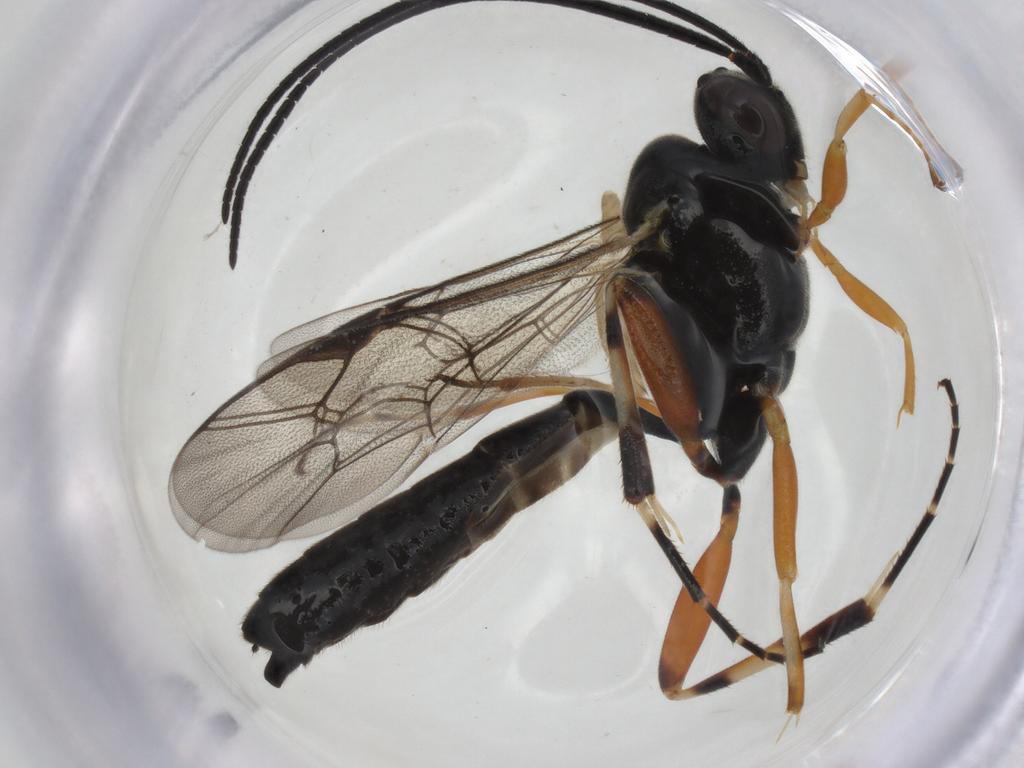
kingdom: Animalia
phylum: Arthropoda
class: Insecta
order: Hymenoptera
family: Ichneumonidae
